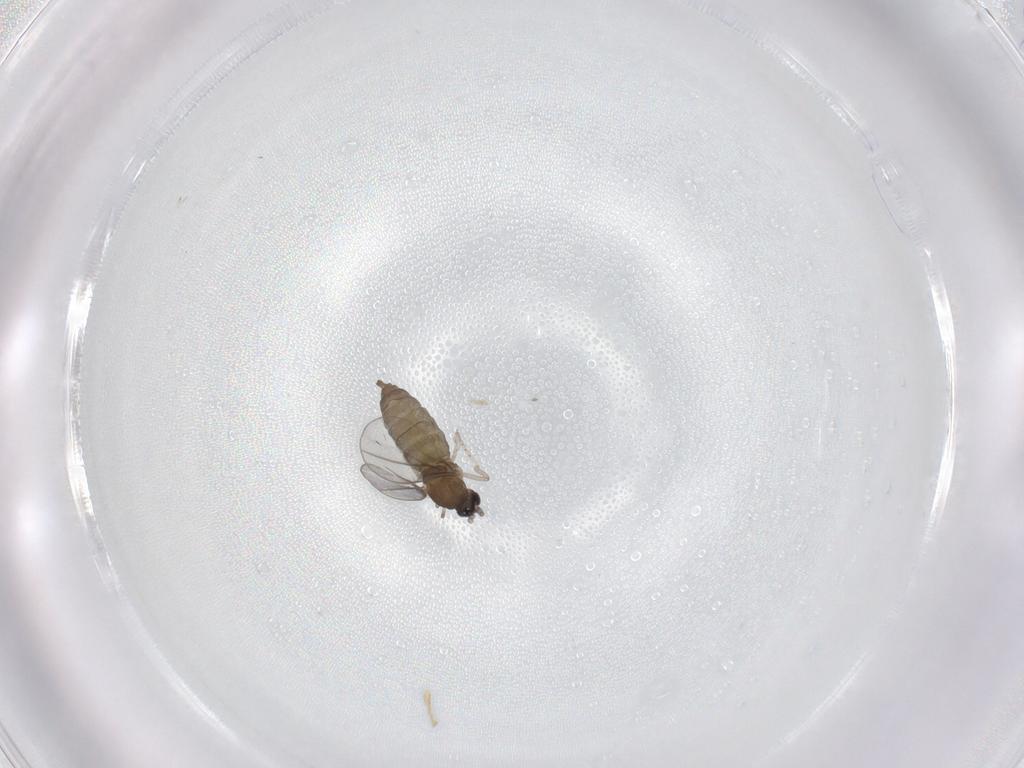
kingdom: Animalia
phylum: Arthropoda
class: Insecta
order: Diptera
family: Cecidomyiidae
